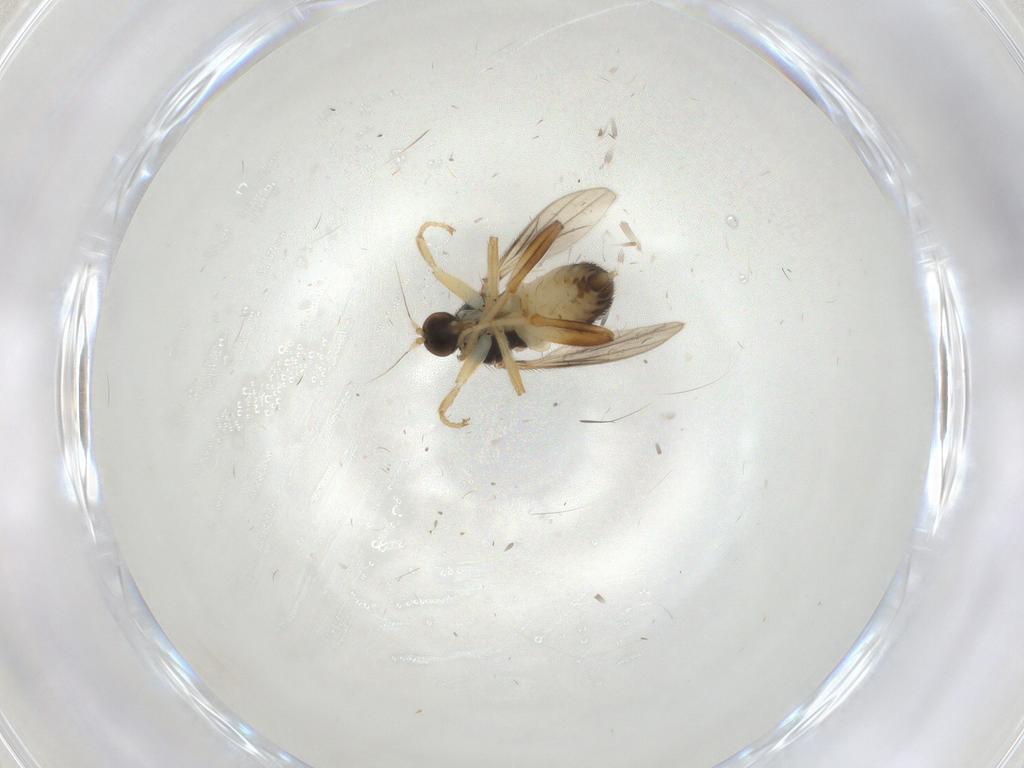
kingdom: Animalia
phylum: Arthropoda
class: Insecta
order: Diptera
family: Hybotidae
